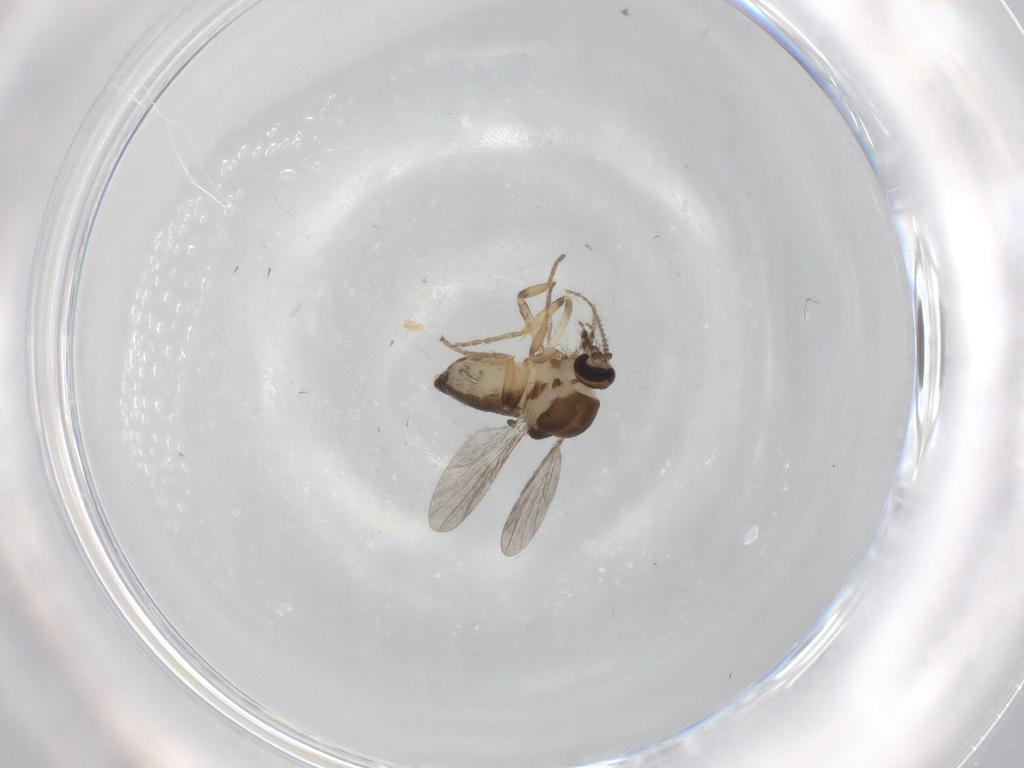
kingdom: Animalia
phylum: Arthropoda
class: Insecta
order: Diptera
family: Ceratopogonidae
